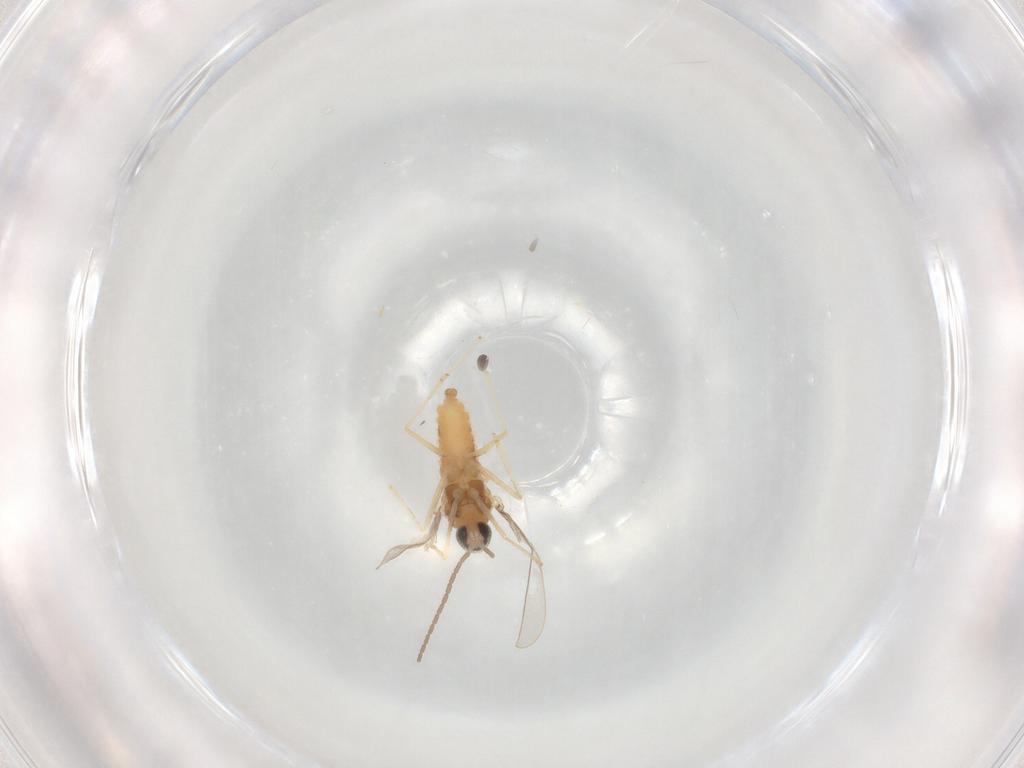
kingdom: Animalia
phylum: Arthropoda
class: Insecta
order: Diptera
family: Cecidomyiidae
